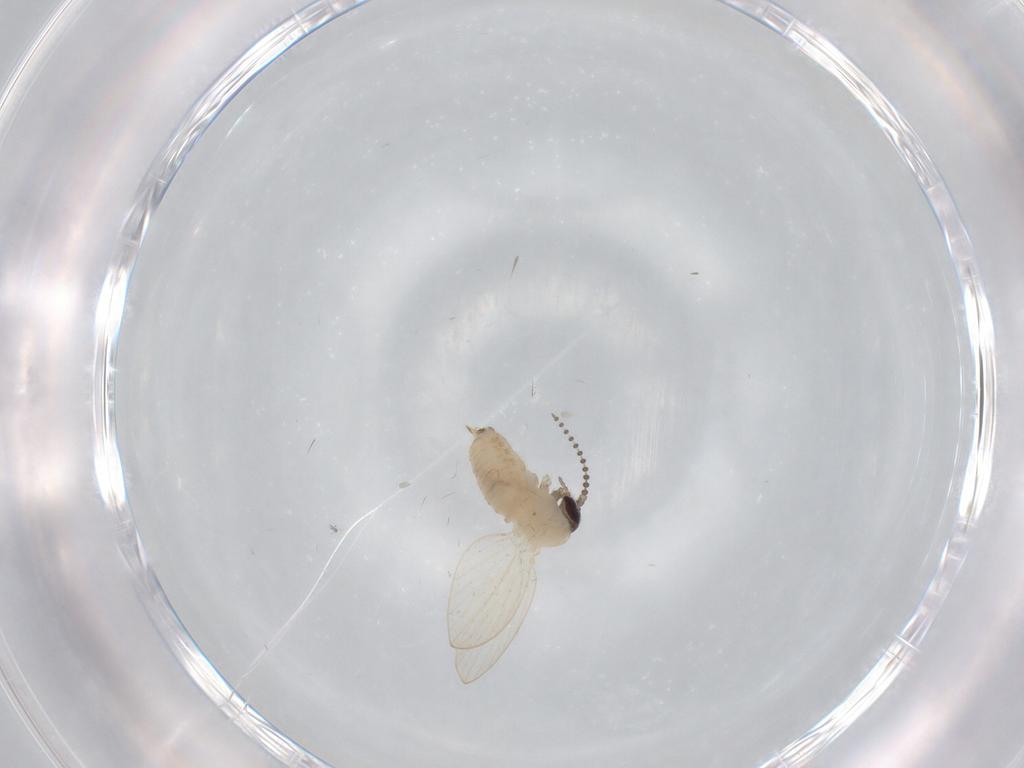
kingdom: Animalia
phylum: Arthropoda
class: Insecta
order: Diptera
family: Psychodidae
